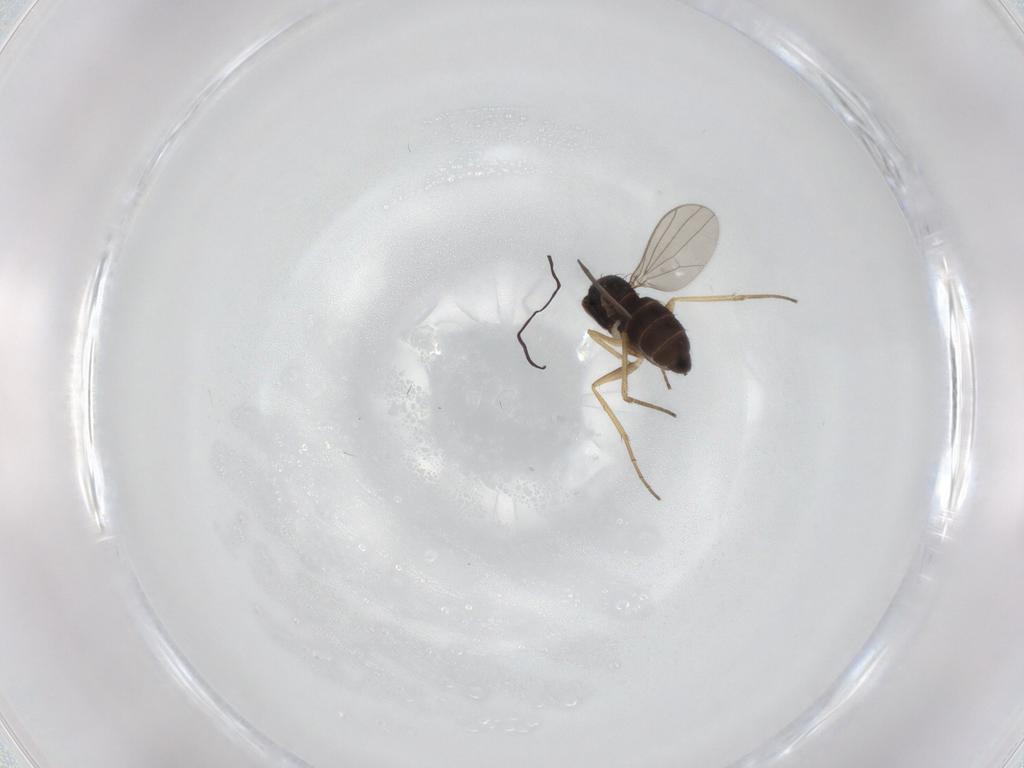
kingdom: Animalia
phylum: Arthropoda
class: Insecta
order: Diptera
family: Dolichopodidae
